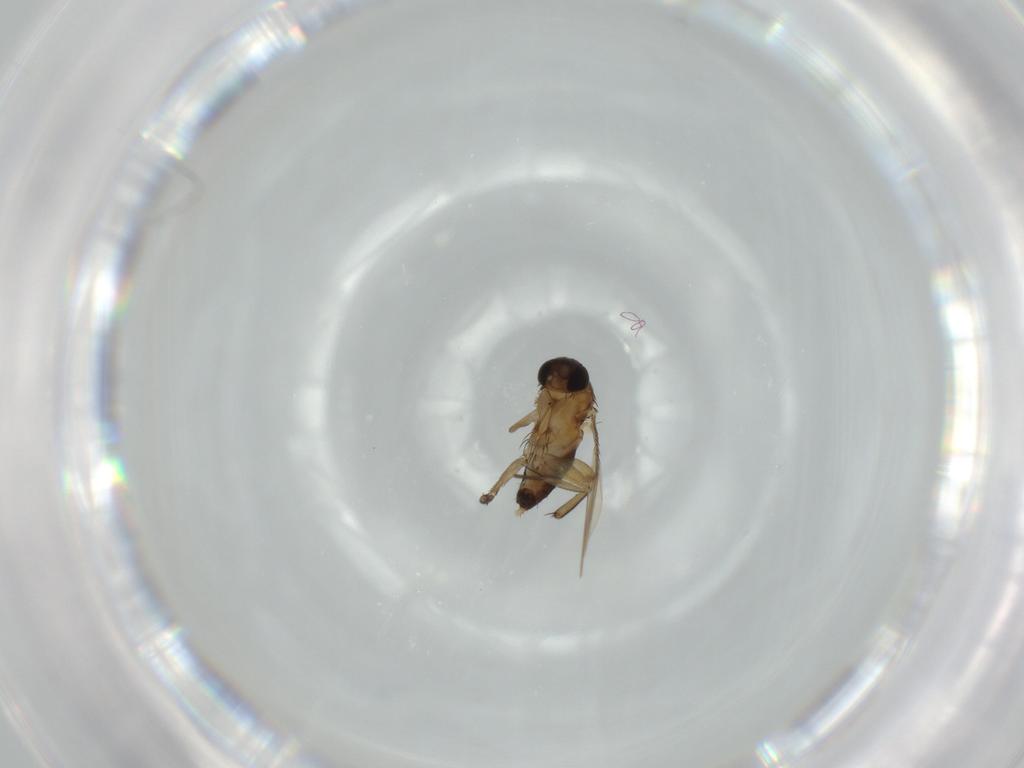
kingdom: Animalia
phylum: Arthropoda
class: Insecta
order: Diptera
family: Phoridae
